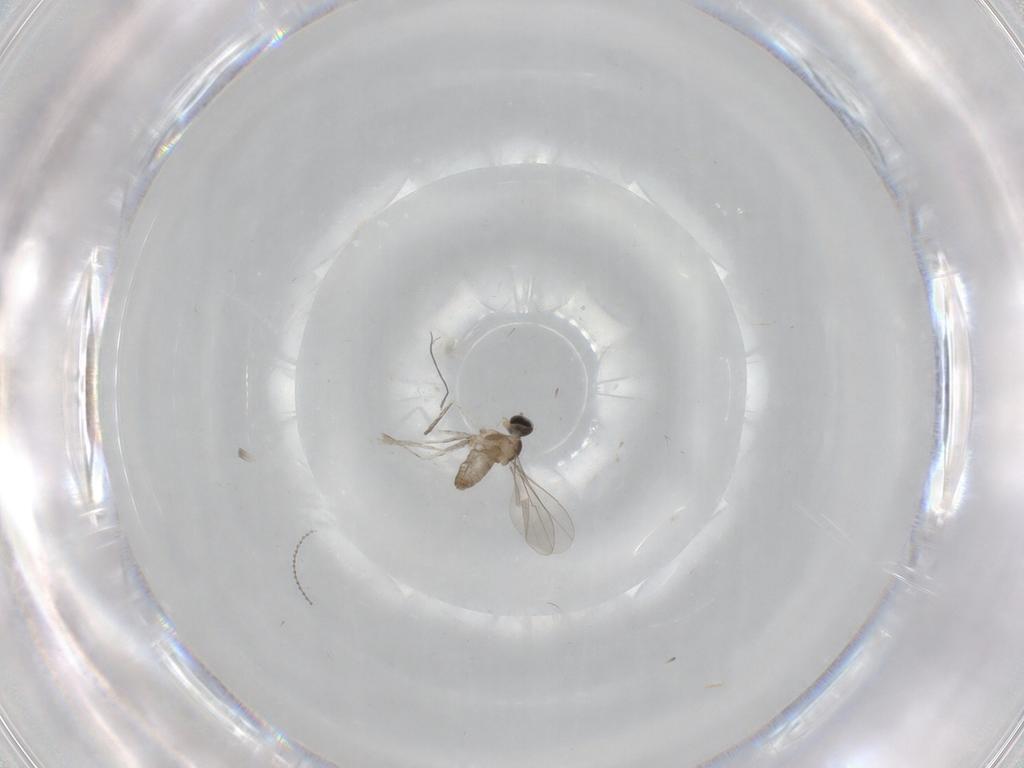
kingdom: Animalia
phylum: Arthropoda
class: Insecta
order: Diptera
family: Cecidomyiidae
